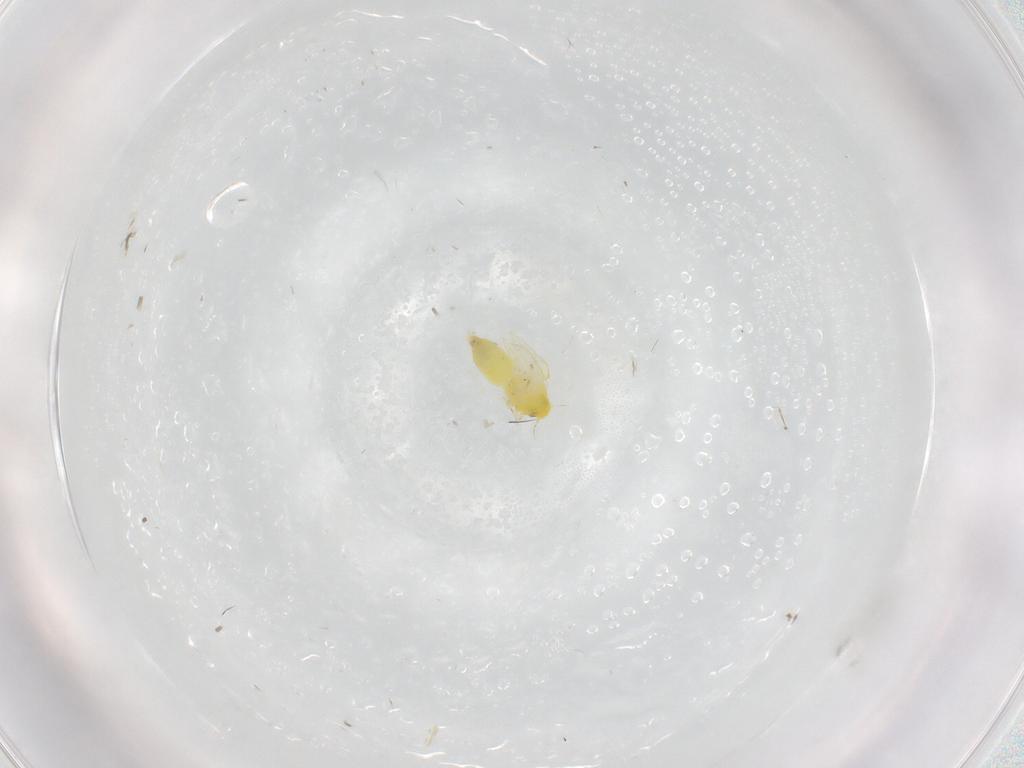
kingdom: Animalia
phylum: Arthropoda
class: Insecta
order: Hemiptera
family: Aleyrodidae
